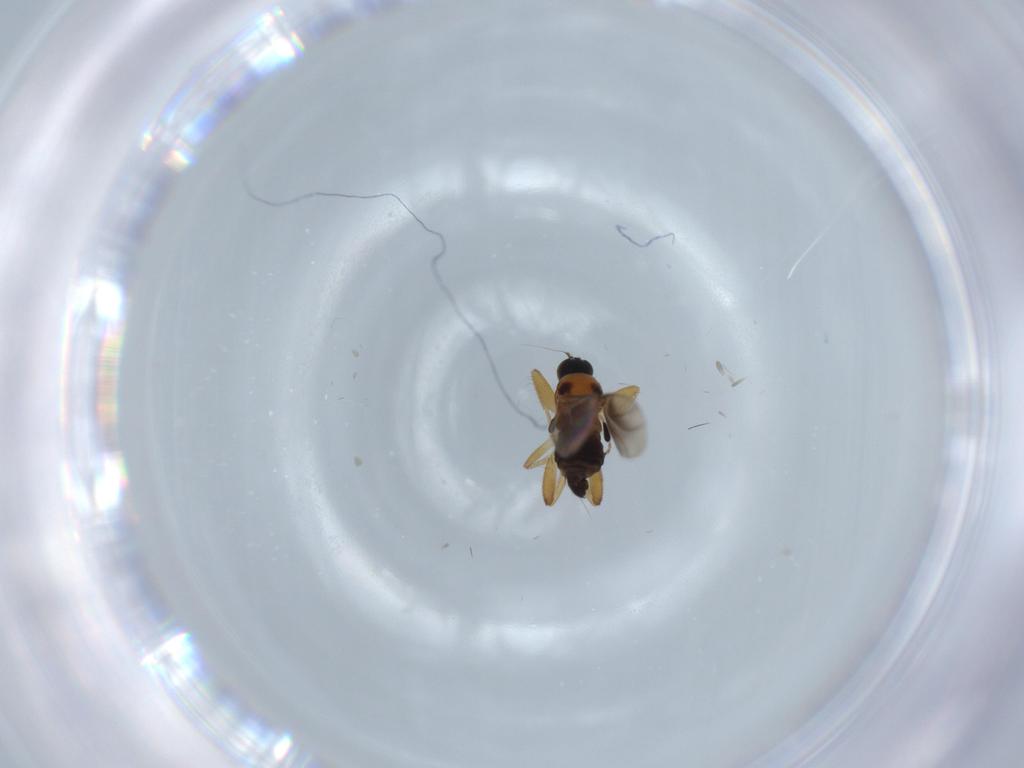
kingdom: Animalia
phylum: Arthropoda
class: Insecta
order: Diptera
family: Hybotidae
